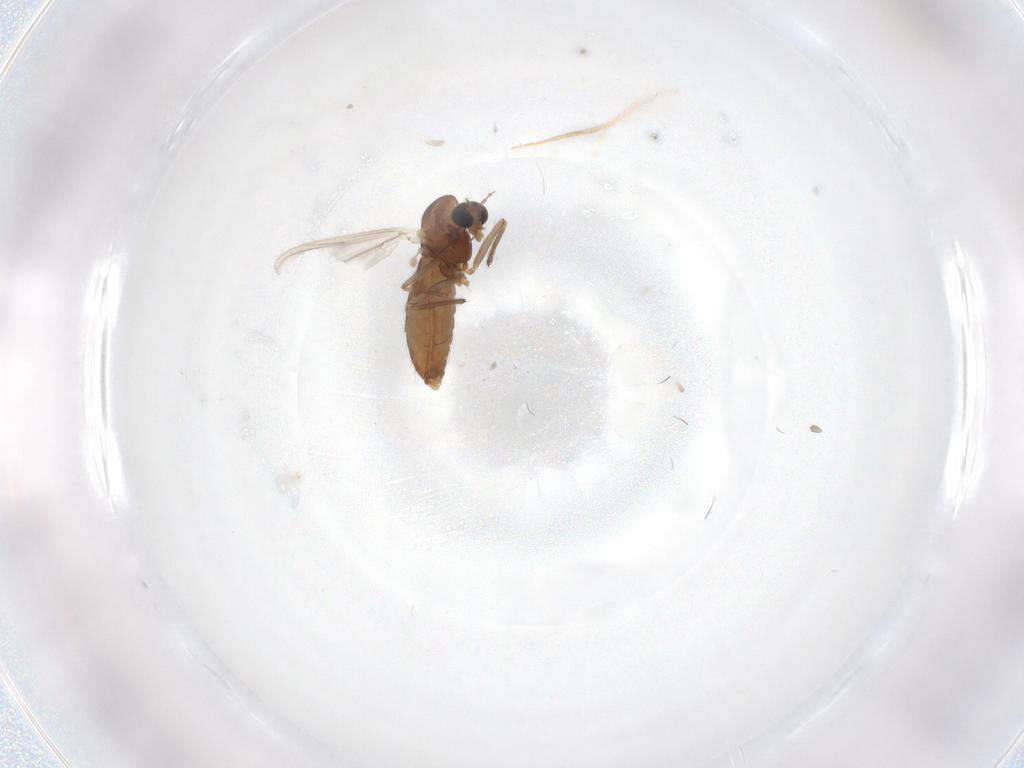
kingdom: Animalia
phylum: Arthropoda
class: Insecta
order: Diptera
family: Chironomidae
